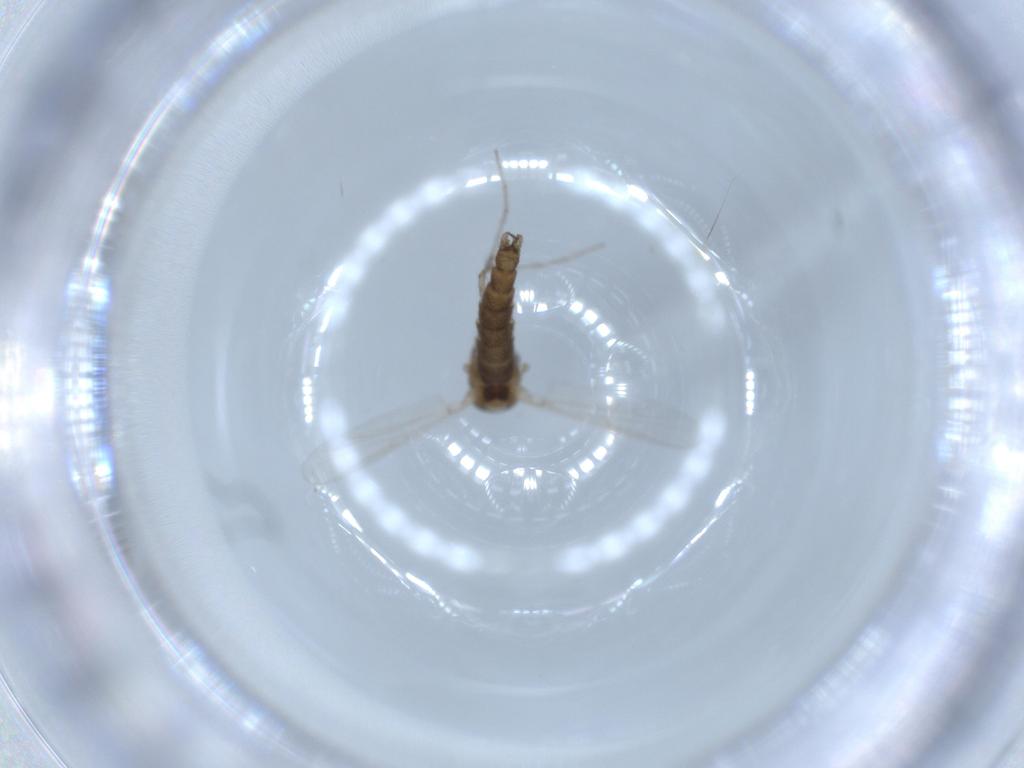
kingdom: Animalia
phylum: Arthropoda
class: Insecta
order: Diptera
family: Chironomidae
